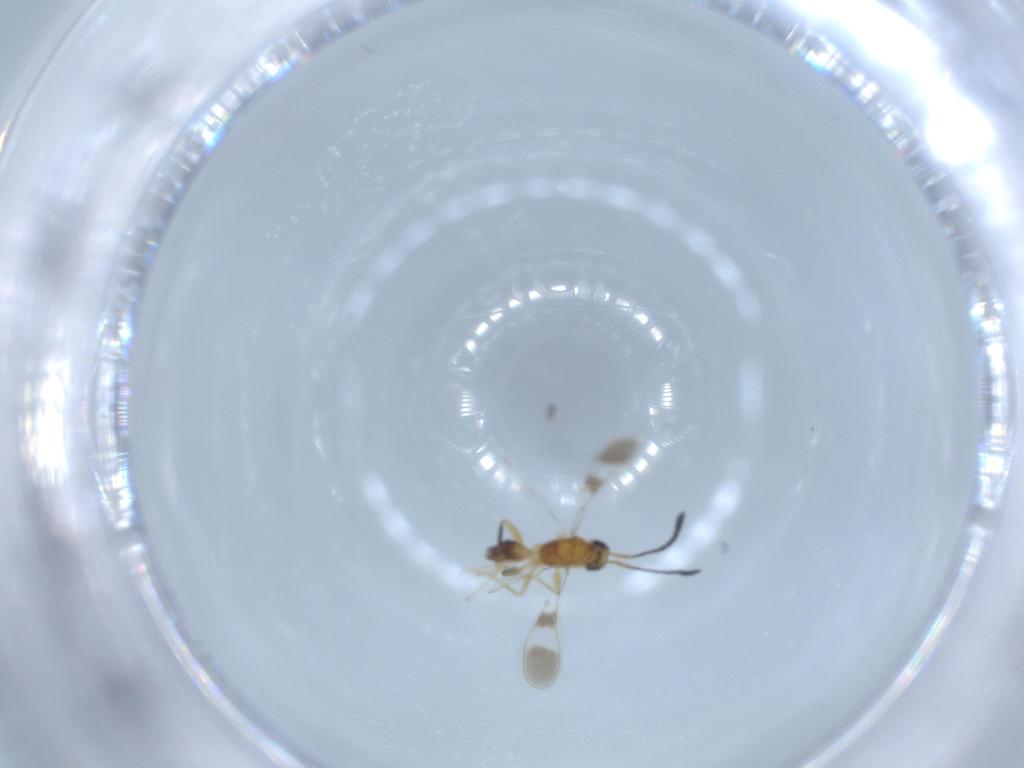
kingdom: Animalia
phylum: Arthropoda
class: Insecta
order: Hymenoptera
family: Mymaridae
